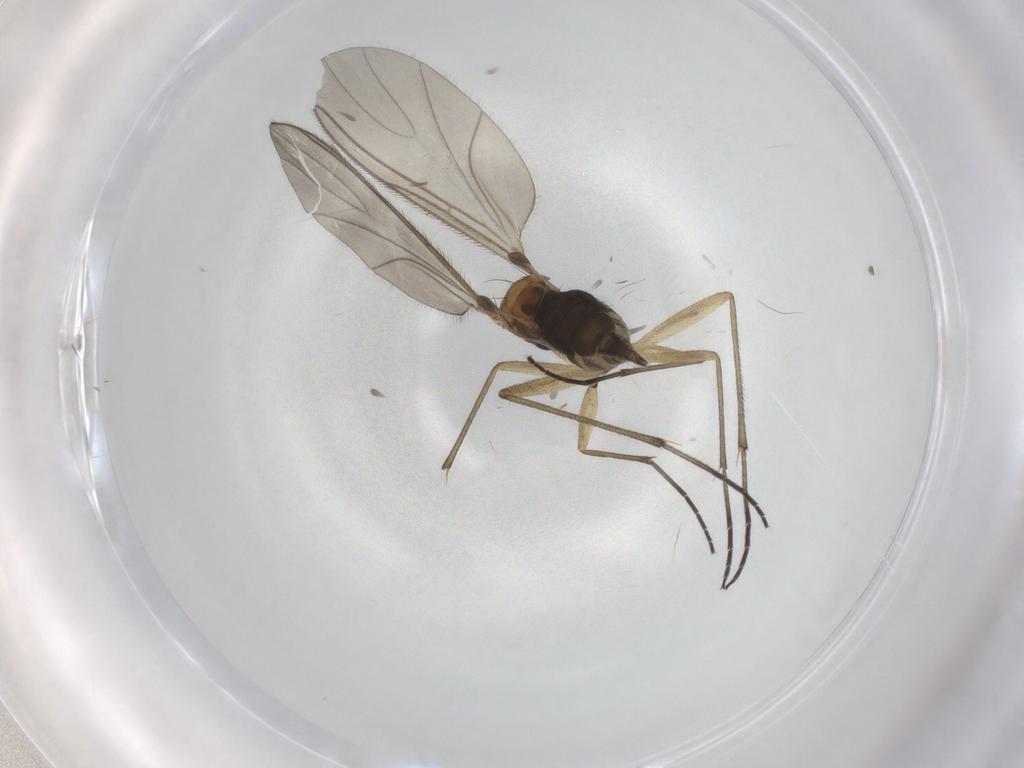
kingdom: Animalia
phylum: Arthropoda
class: Insecta
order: Diptera
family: Sciaridae
